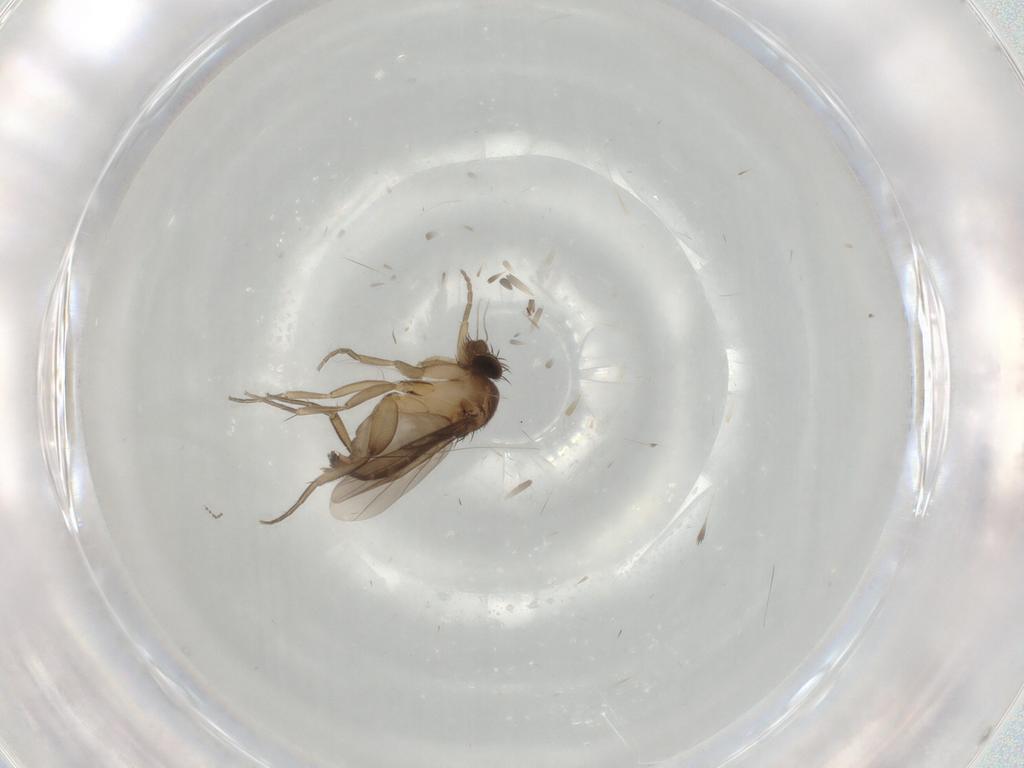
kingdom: Animalia
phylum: Arthropoda
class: Insecta
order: Diptera
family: Phoridae
